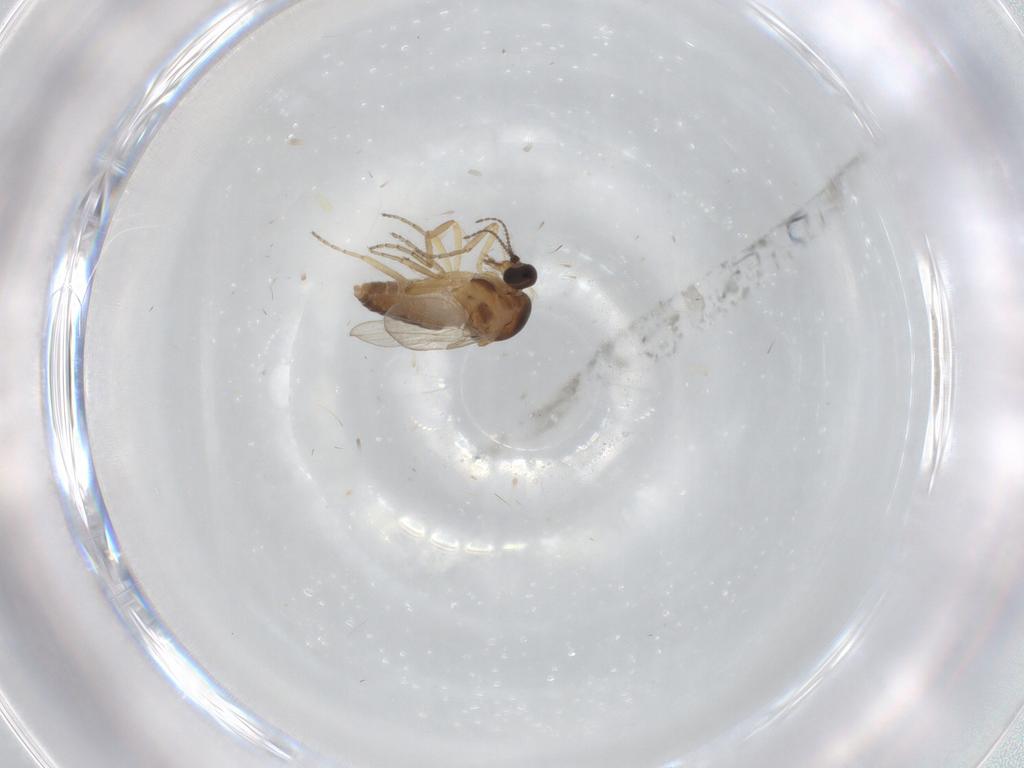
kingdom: Animalia
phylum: Arthropoda
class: Insecta
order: Diptera
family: Ceratopogonidae
